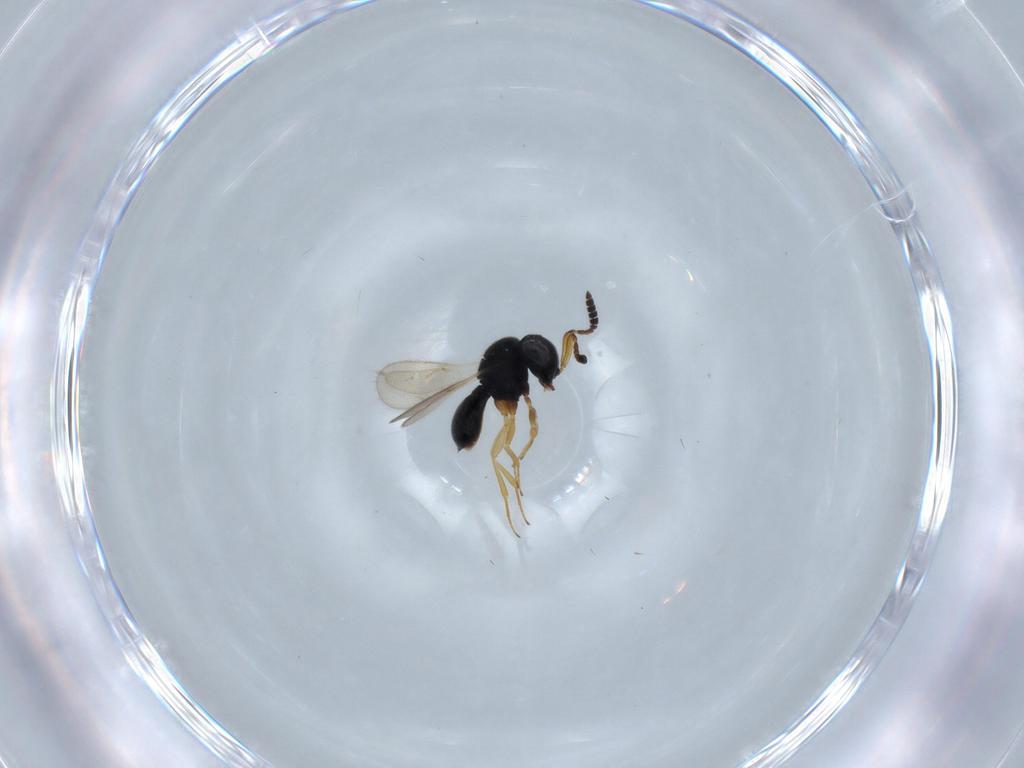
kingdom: Animalia
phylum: Arthropoda
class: Insecta
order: Hymenoptera
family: Scelionidae
